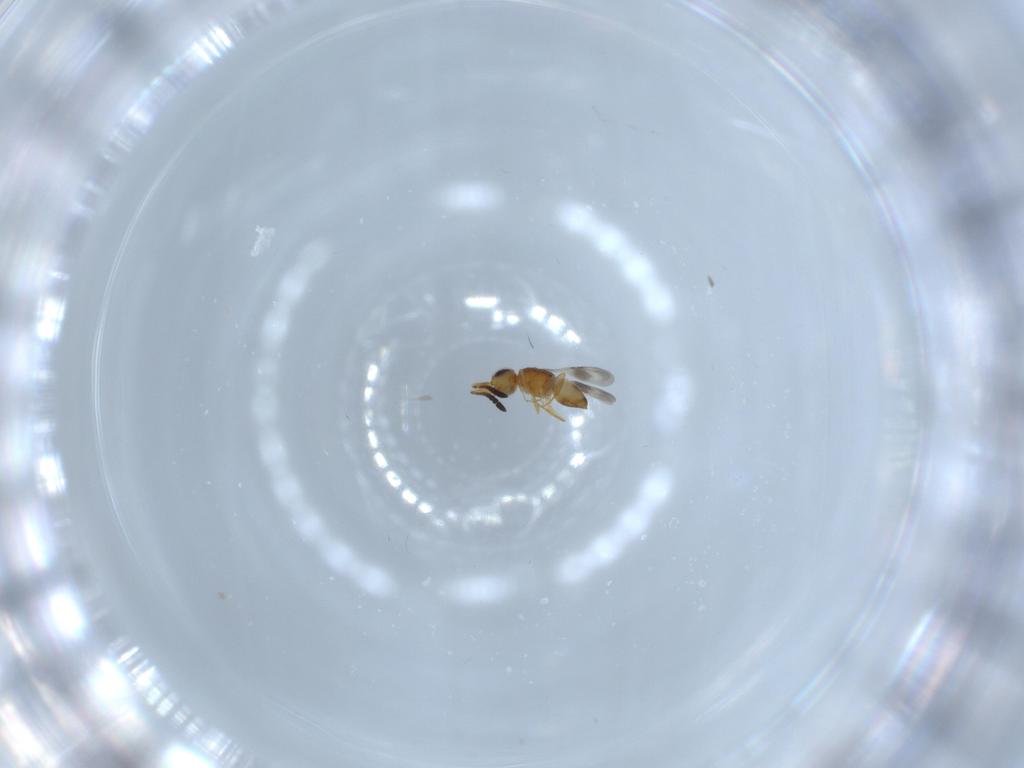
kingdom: Animalia
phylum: Arthropoda
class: Insecta
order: Hymenoptera
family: Ceraphronidae
